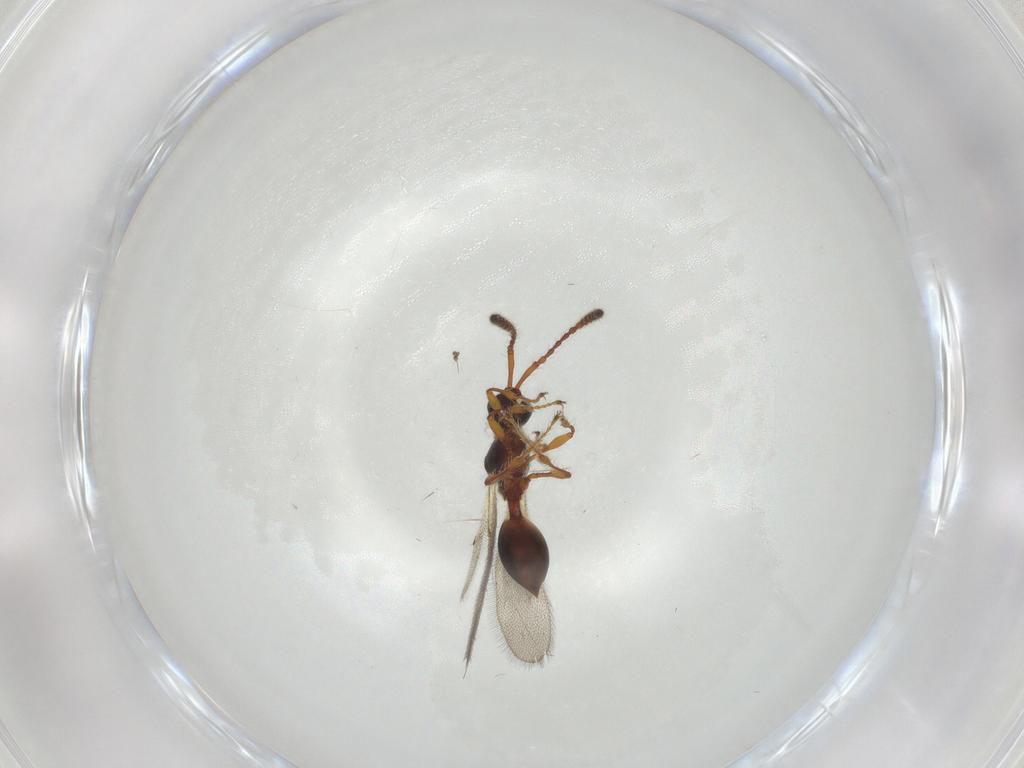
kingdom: Animalia
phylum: Arthropoda
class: Insecta
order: Hymenoptera
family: Diapriidae
